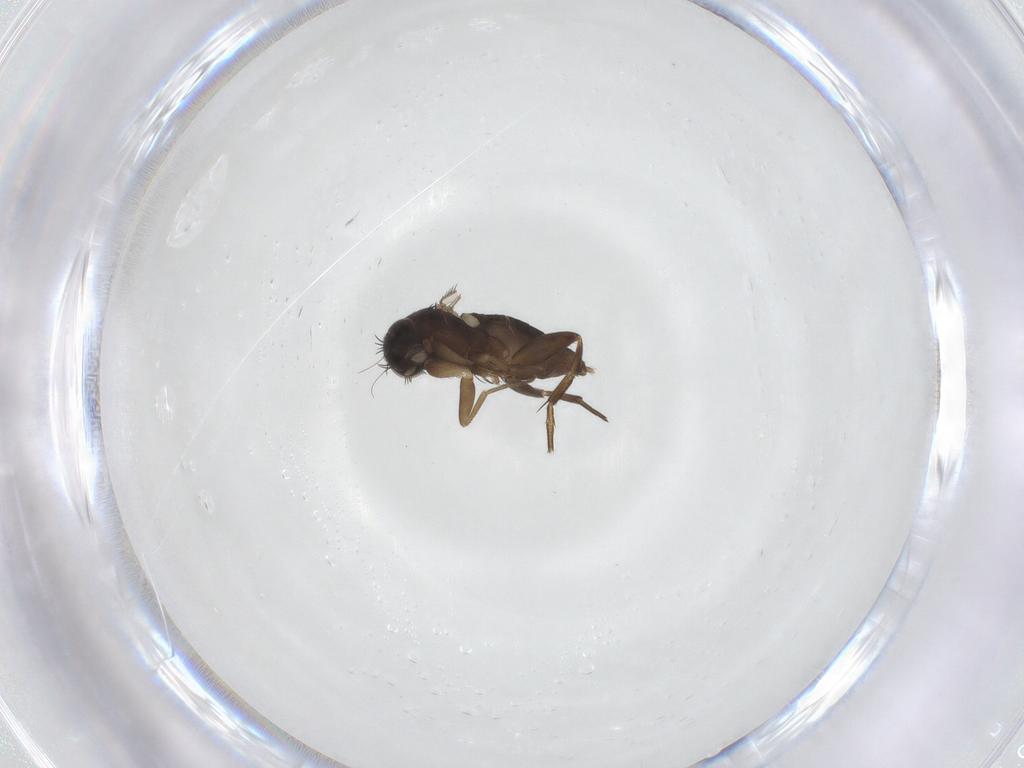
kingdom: Animalia
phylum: Arthropoda
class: Insecta
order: Diptera
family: Phoridae
